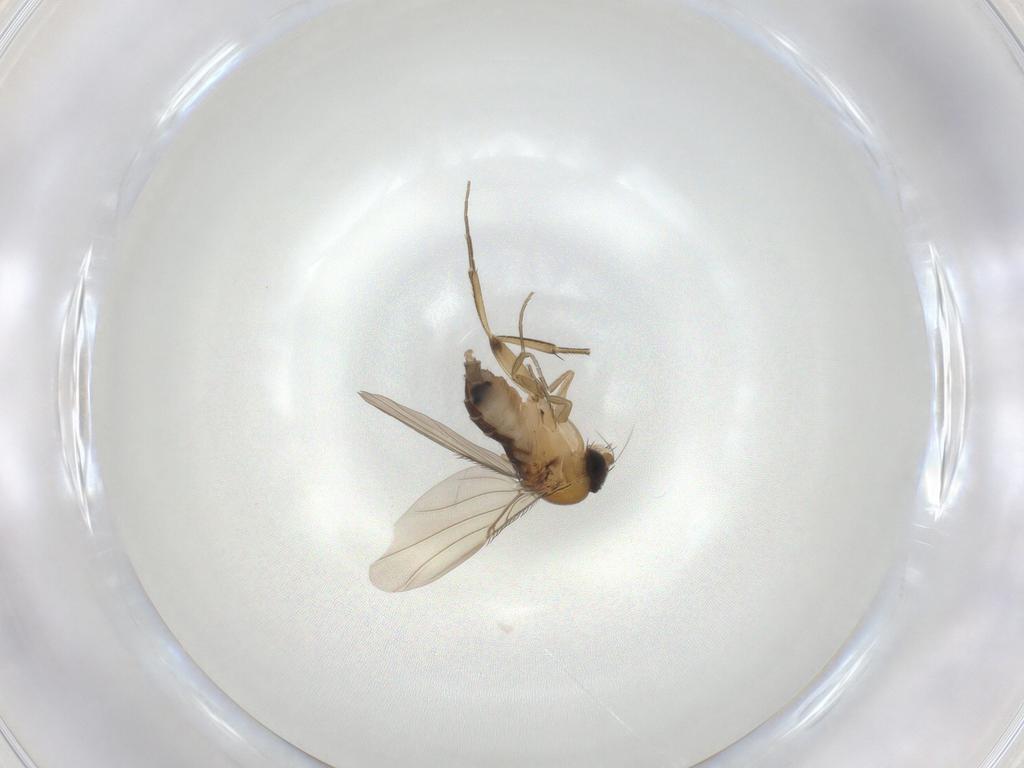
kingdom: Animalia
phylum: Arthropoda
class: Insecta
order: Diptera
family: Phoridae
